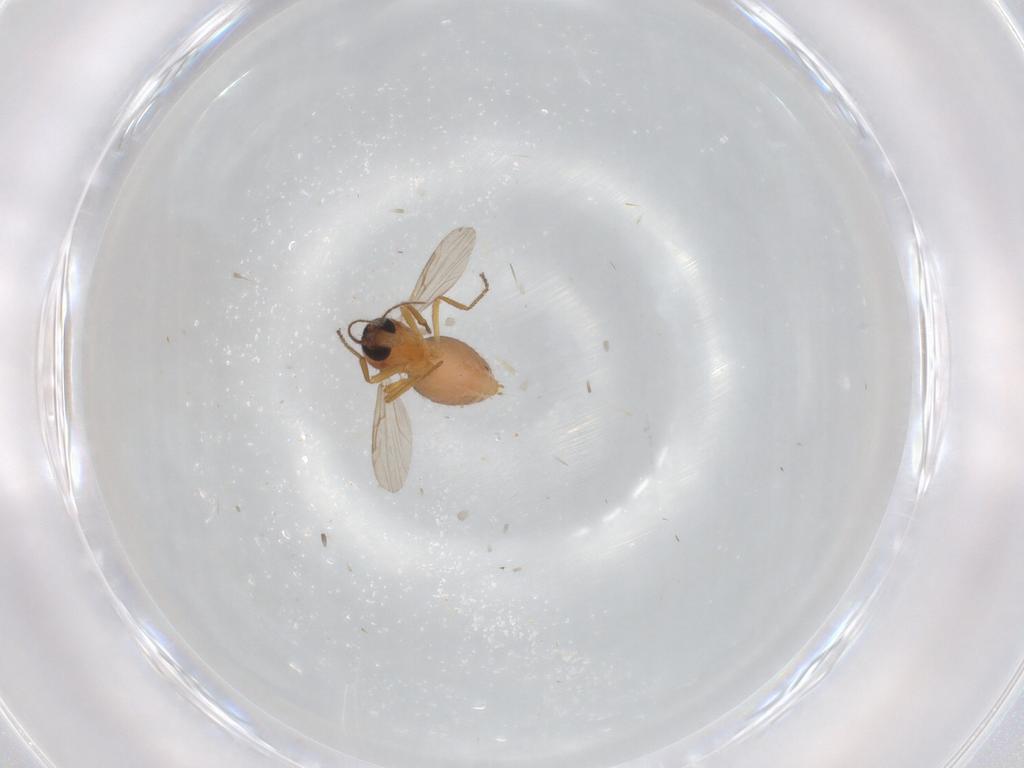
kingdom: Animalia
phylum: Arthropoda
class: Insecta
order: Diptera
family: Ceratopogonidae
